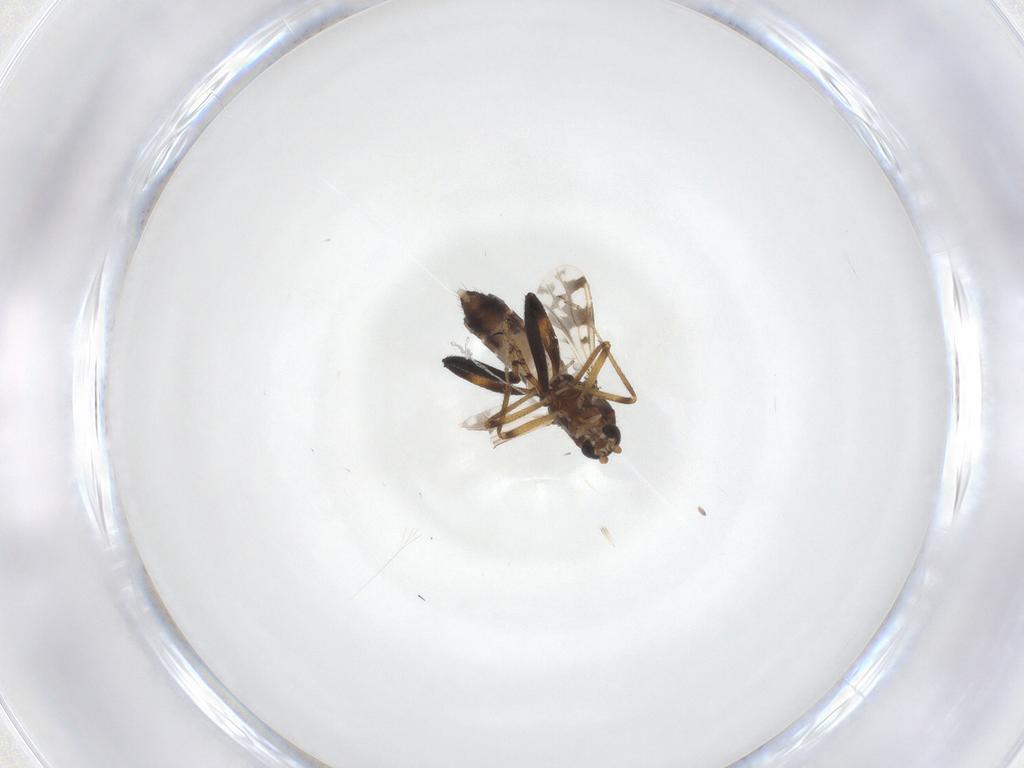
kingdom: Animalia
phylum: Arthropoda
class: Insecta
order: Diptera
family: Ceratopogonidae
